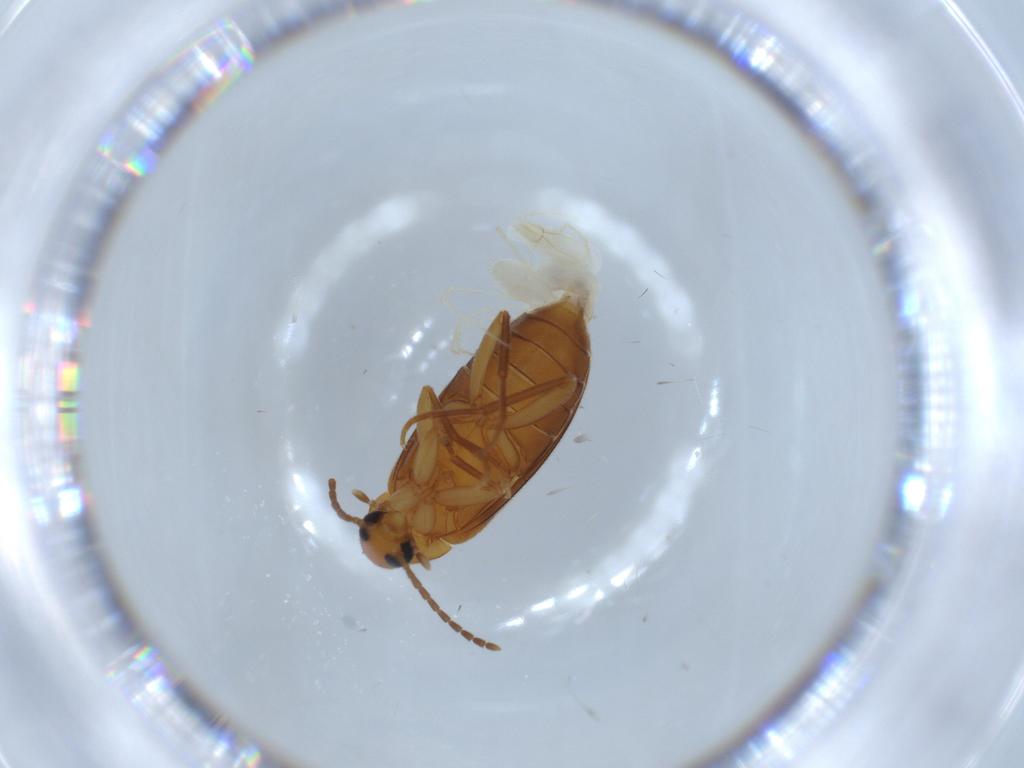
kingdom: Animalia
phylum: Arthropoda
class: Insecta
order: Coleoptera
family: Scraptiidae
